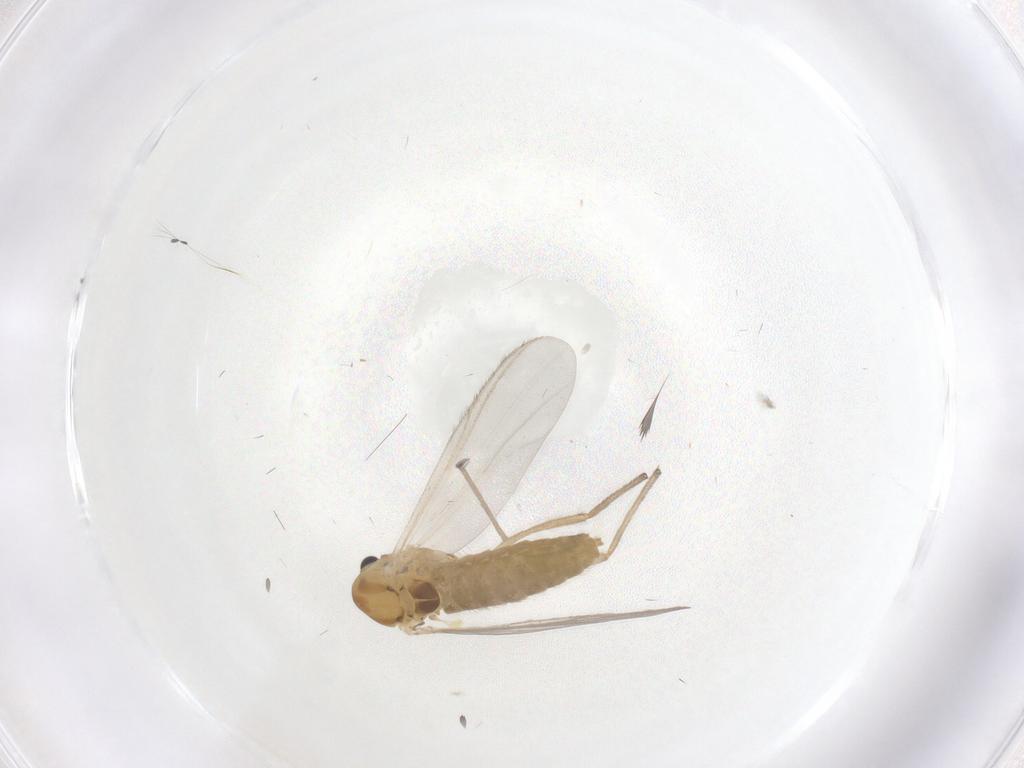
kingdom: Animalia
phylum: Arthropoda
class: Insecta
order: Diptera
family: Chironomidae
